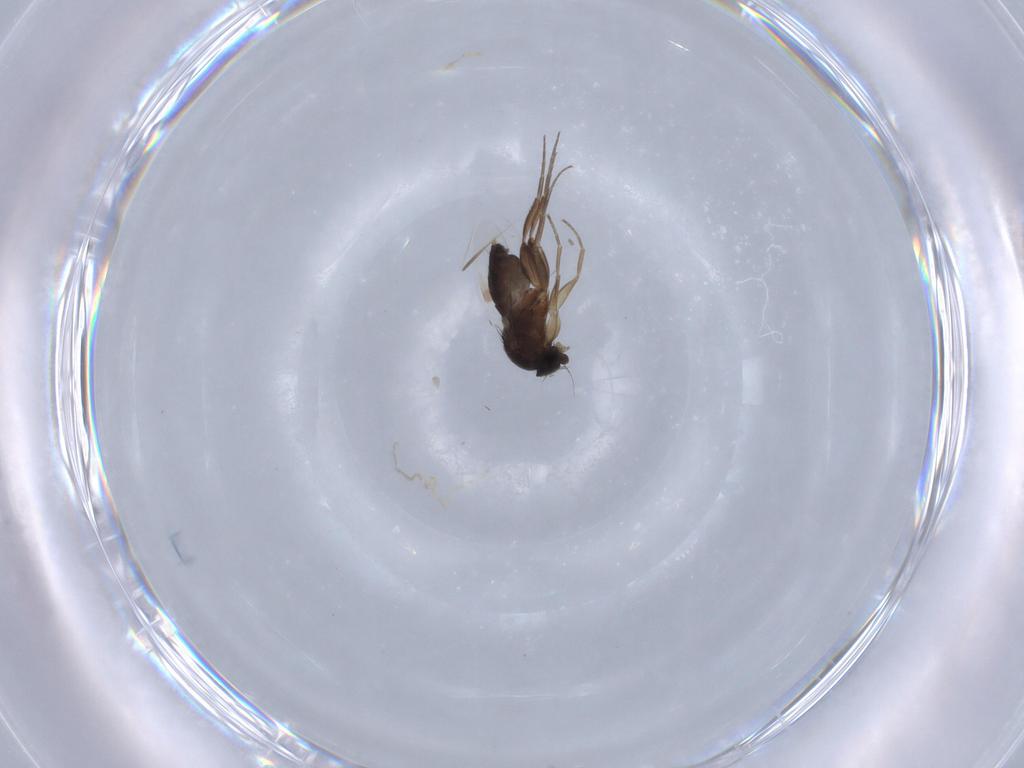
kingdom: Animalia
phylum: Arthropoda
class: Insecta
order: Diptera
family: Phoridae
